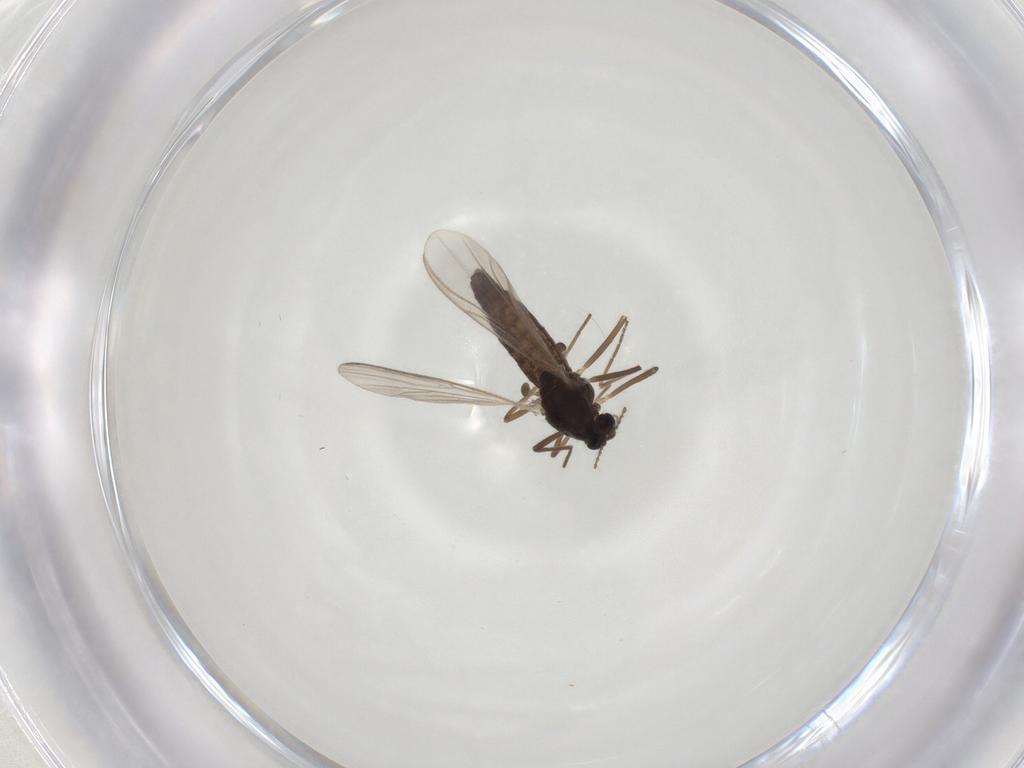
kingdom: Animalia
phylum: Arthropoda
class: Insecta
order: Diptera
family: Chironomidae
